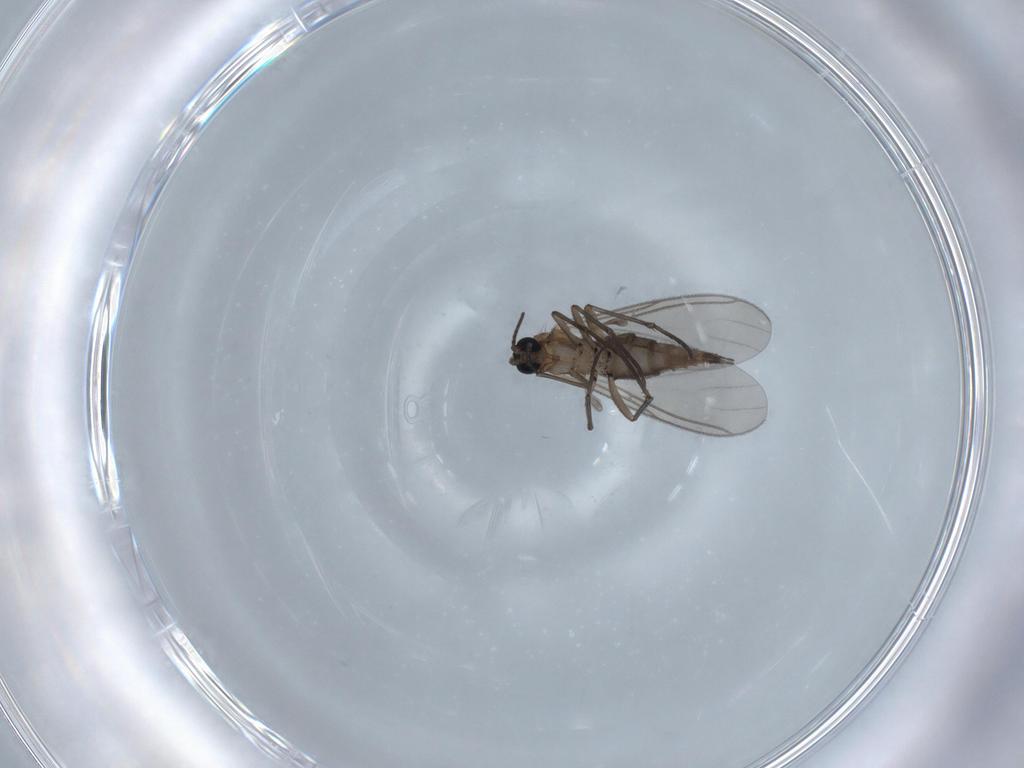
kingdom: Animalia
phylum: Arthropoda
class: Insecta
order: Diptera
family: Sciaridae
